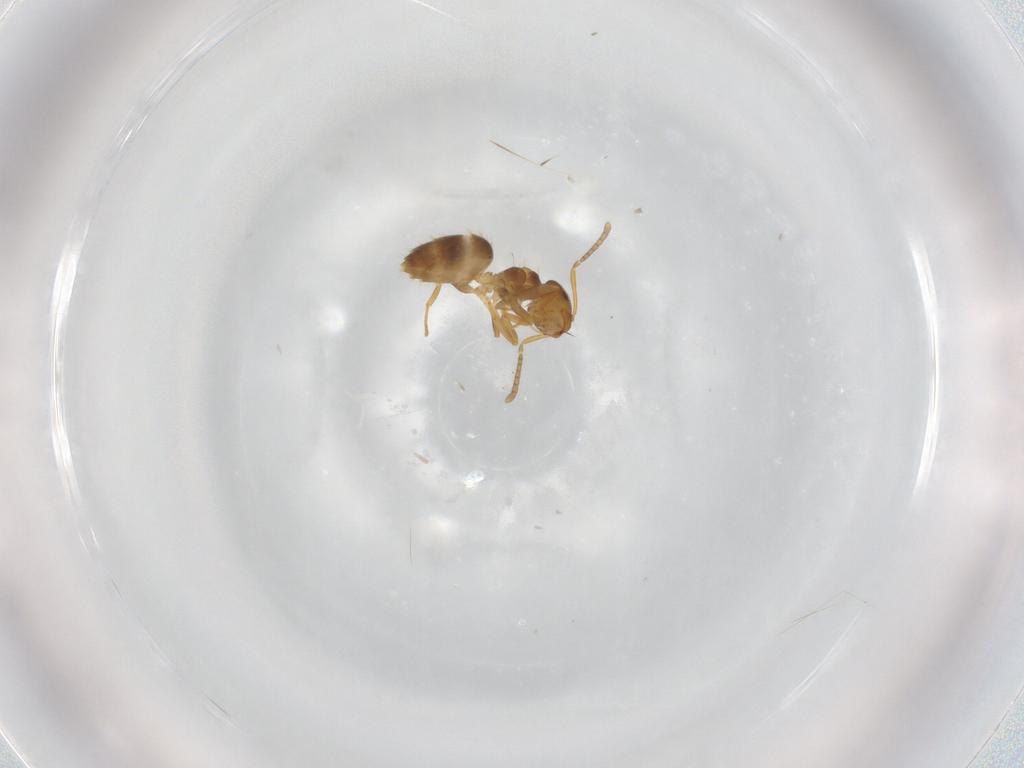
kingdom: Animalia
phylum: Arthropoda
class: Insecta
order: Hymenoptera
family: Eulophidae
